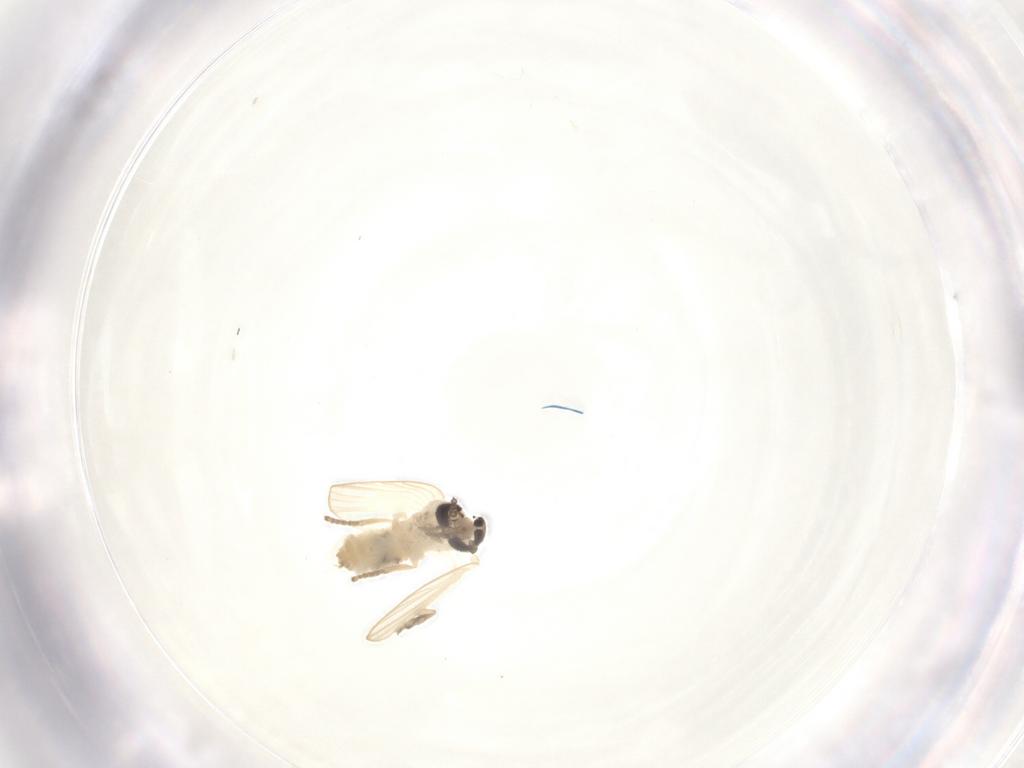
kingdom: Animalia
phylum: Arthropoda
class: Insecta
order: Diptera
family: Psychodidae
